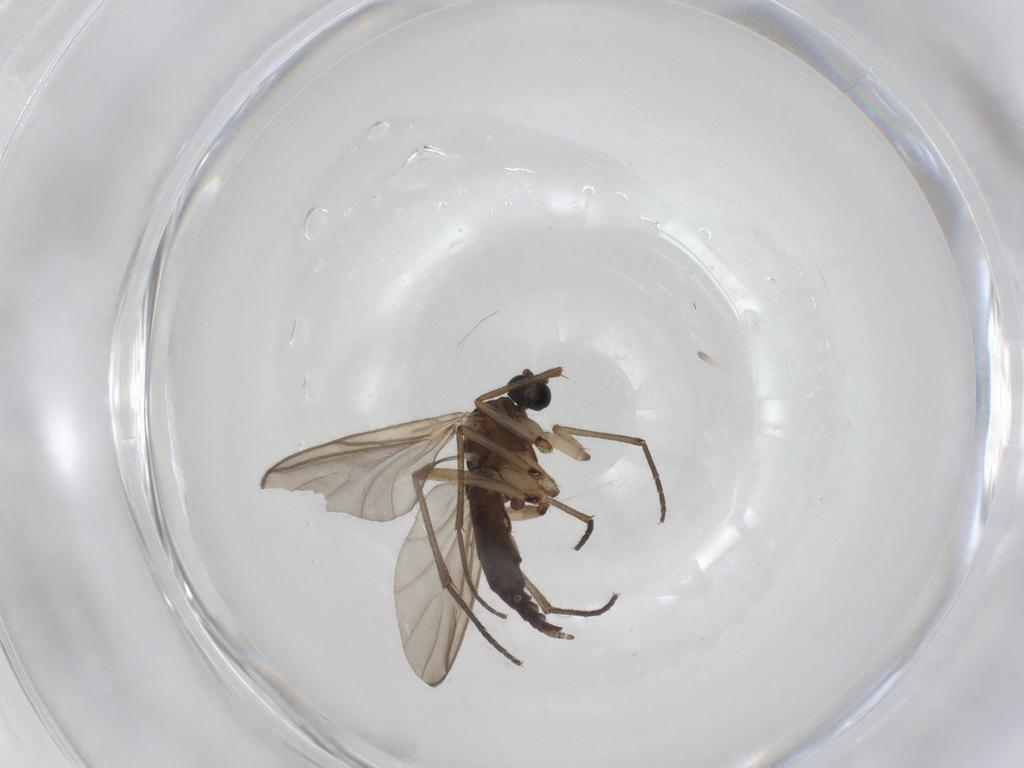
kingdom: Animalia
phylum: Arthropoda
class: Insecta
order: Diptera
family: Sciaridae
